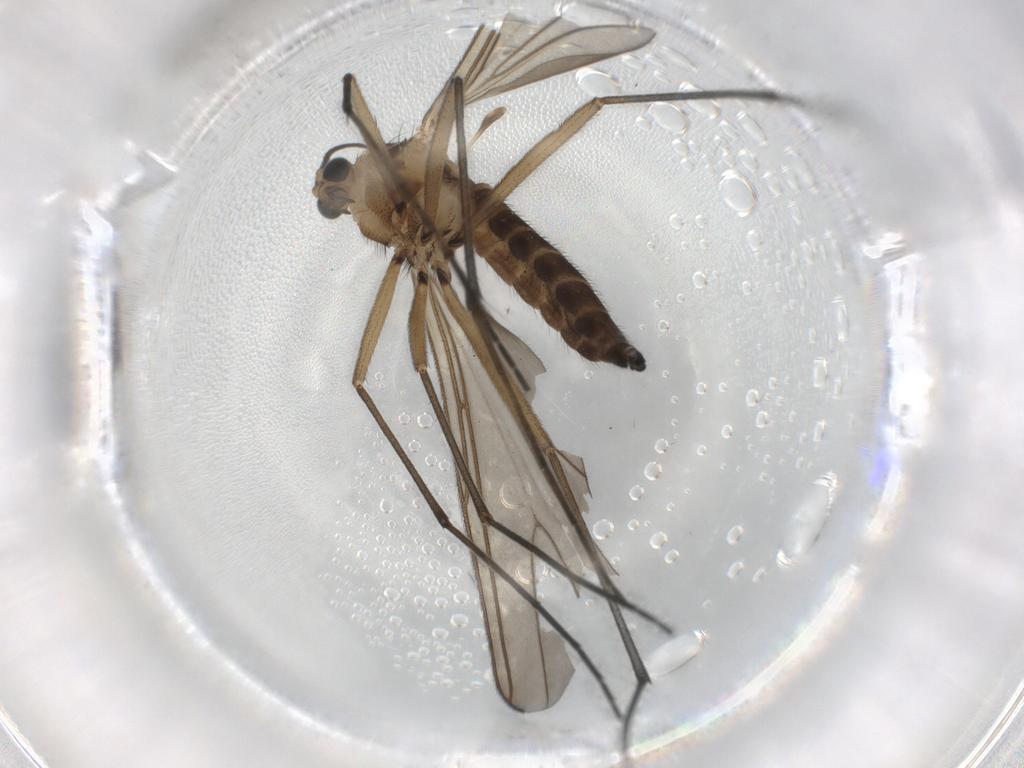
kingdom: Animalia
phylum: Arthropoda
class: Insecta
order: Diptera
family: Sciaridae
